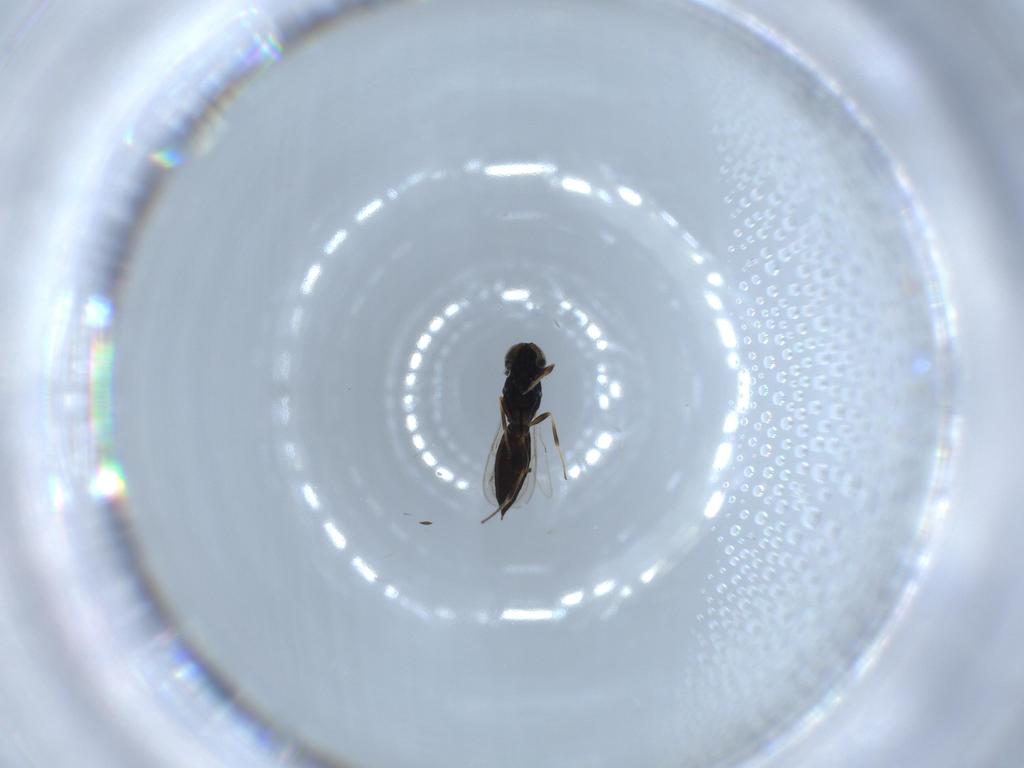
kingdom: Animalia
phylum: Arthropoda
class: Insecta
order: Hymenoptera
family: Scelionidae
